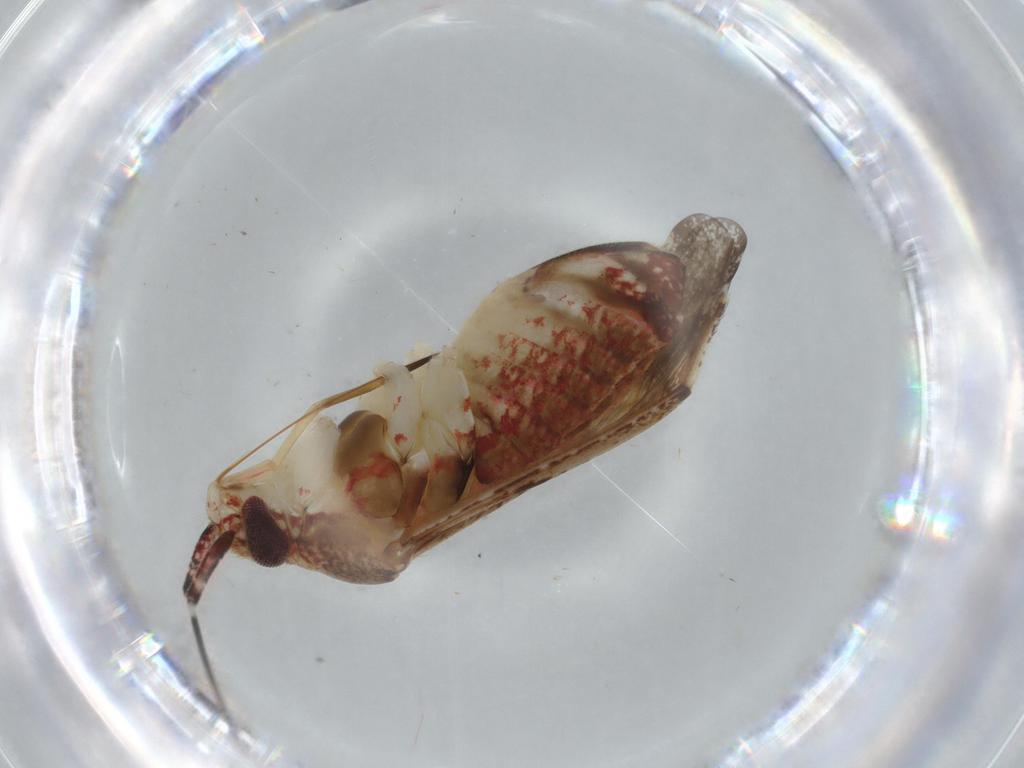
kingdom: Animalia
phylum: Arthropoda
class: Insecta
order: Hemiptera
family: Miridae
